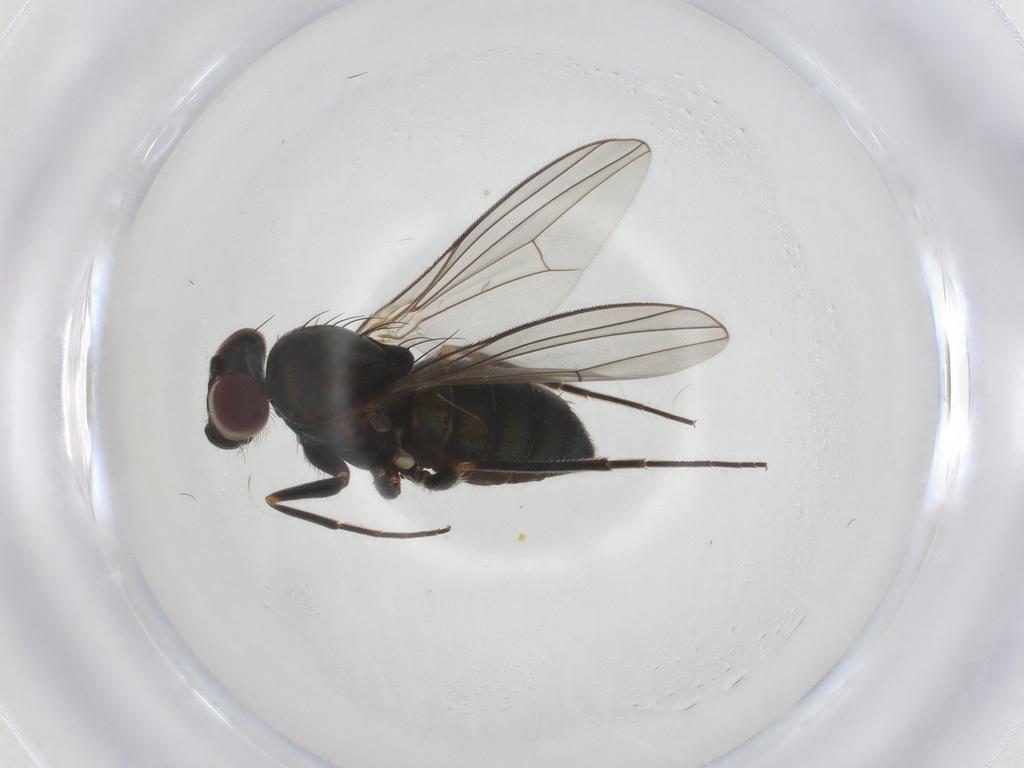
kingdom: Animalia
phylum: Arthropoda
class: Insecta
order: Diptera
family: Dolichopodidae
